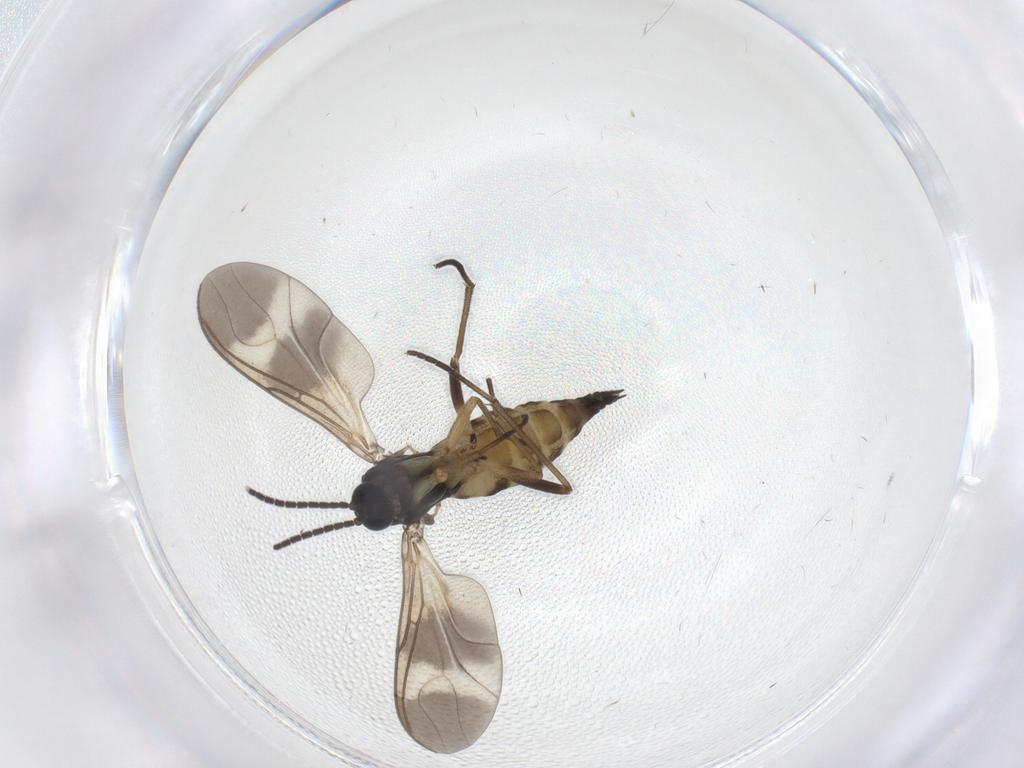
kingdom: Animalia
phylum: Arthropoda
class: Insecta
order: Diptera
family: Sciaridae
